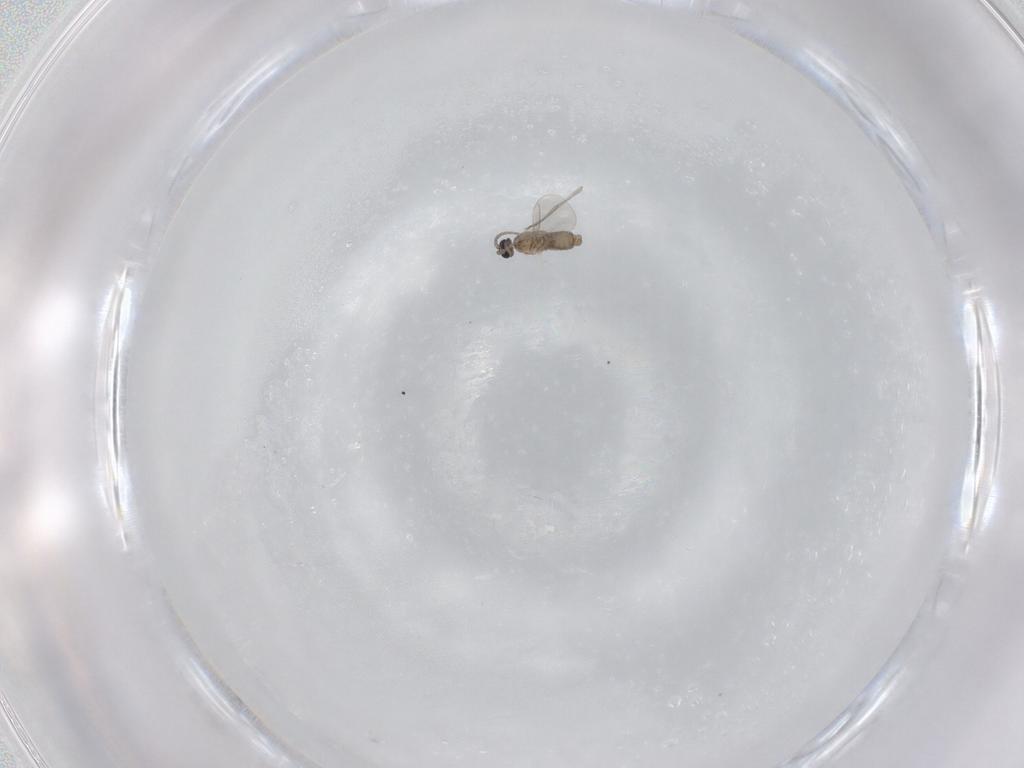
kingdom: Animalia
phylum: Arthropoda
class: Insecta
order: Diptera
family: Cecidomyiidae
